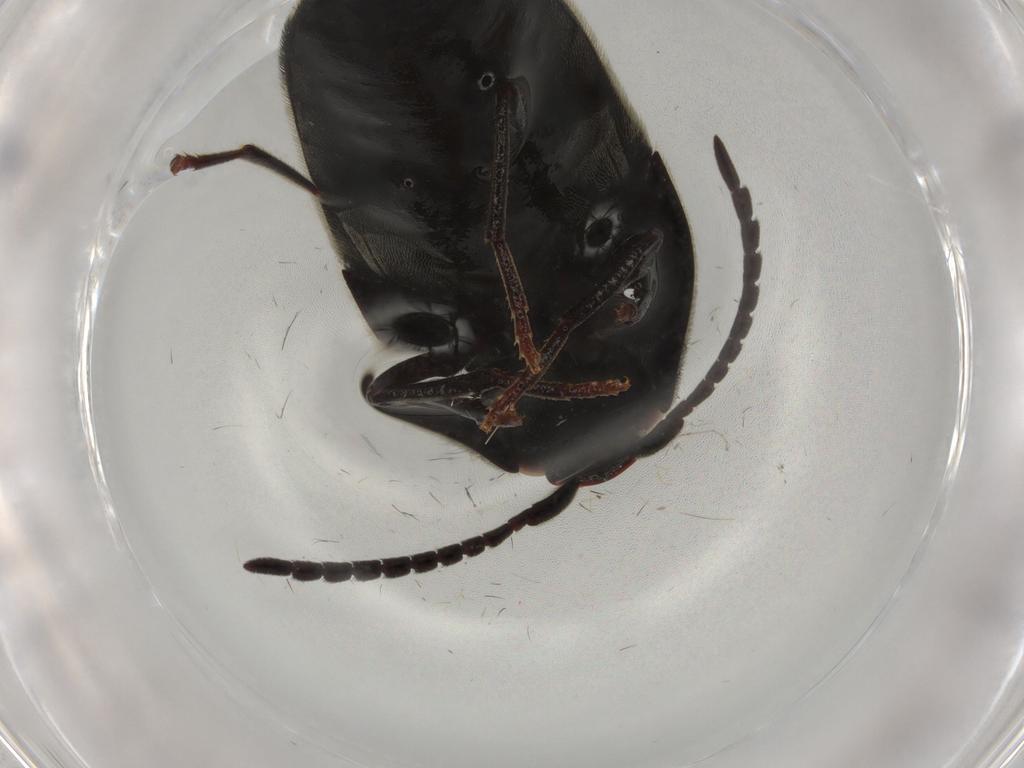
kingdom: Animalia
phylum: Arthropoda
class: Insecta
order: Coleoptera
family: Eucnemidae
